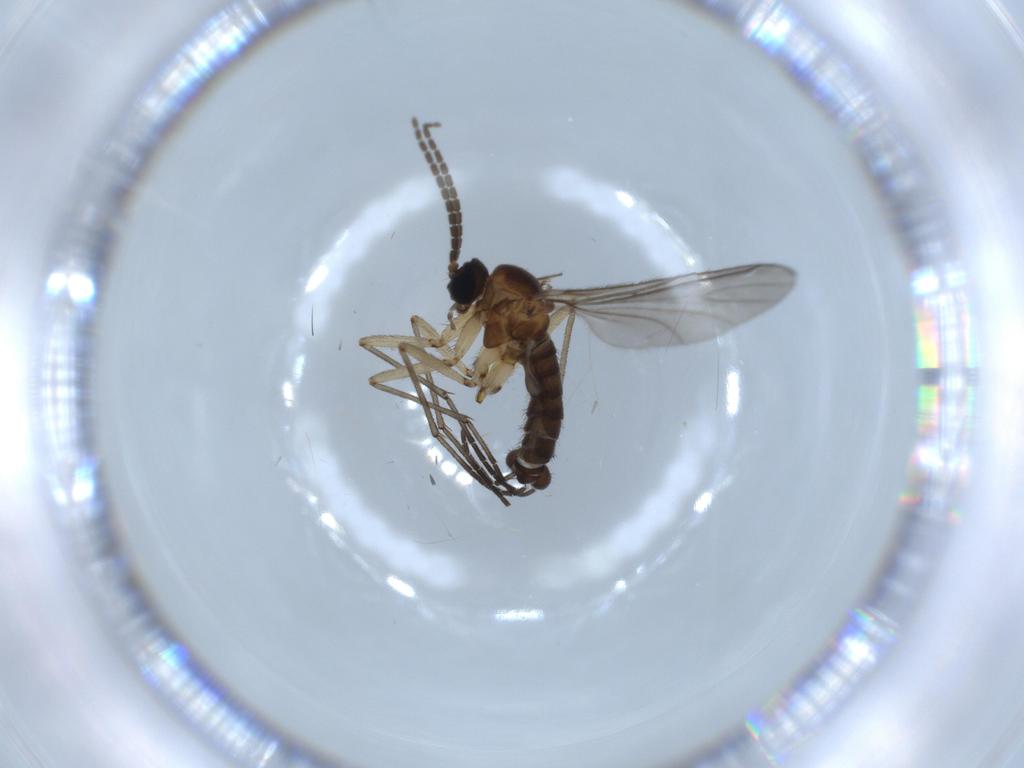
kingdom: Animalia
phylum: Arthropoda
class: Insecta
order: Diptera
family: Sciaridae
